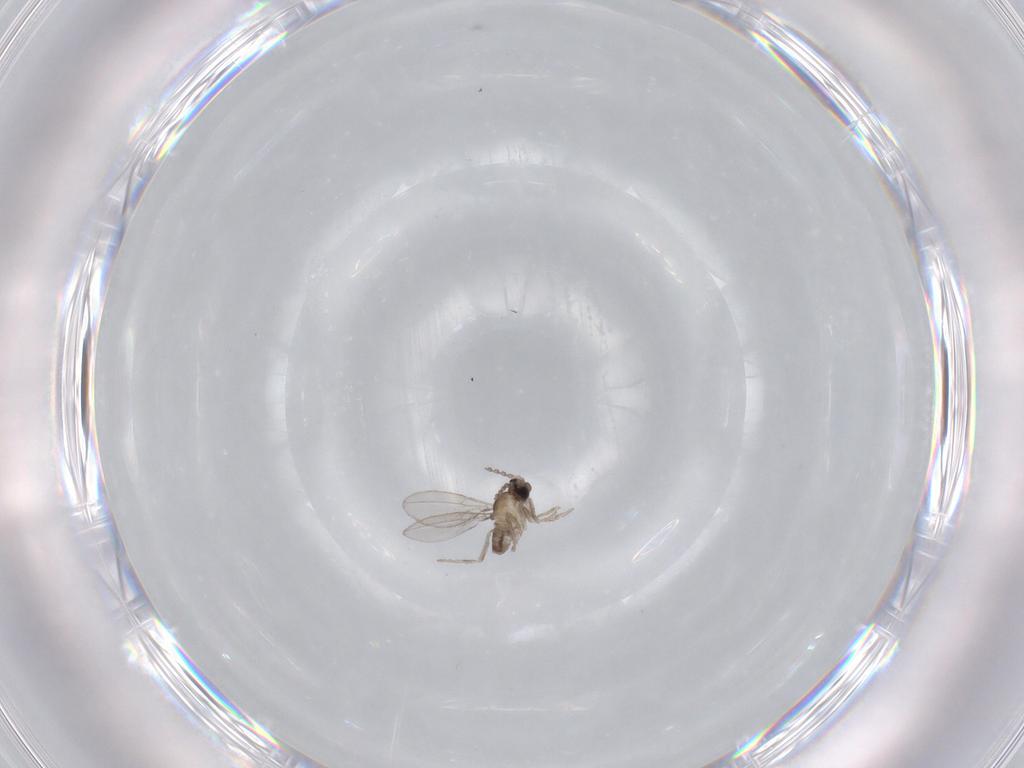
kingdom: Animalia
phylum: Arthropoda
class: Insecta
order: Diptera
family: Cecidomyiidae
